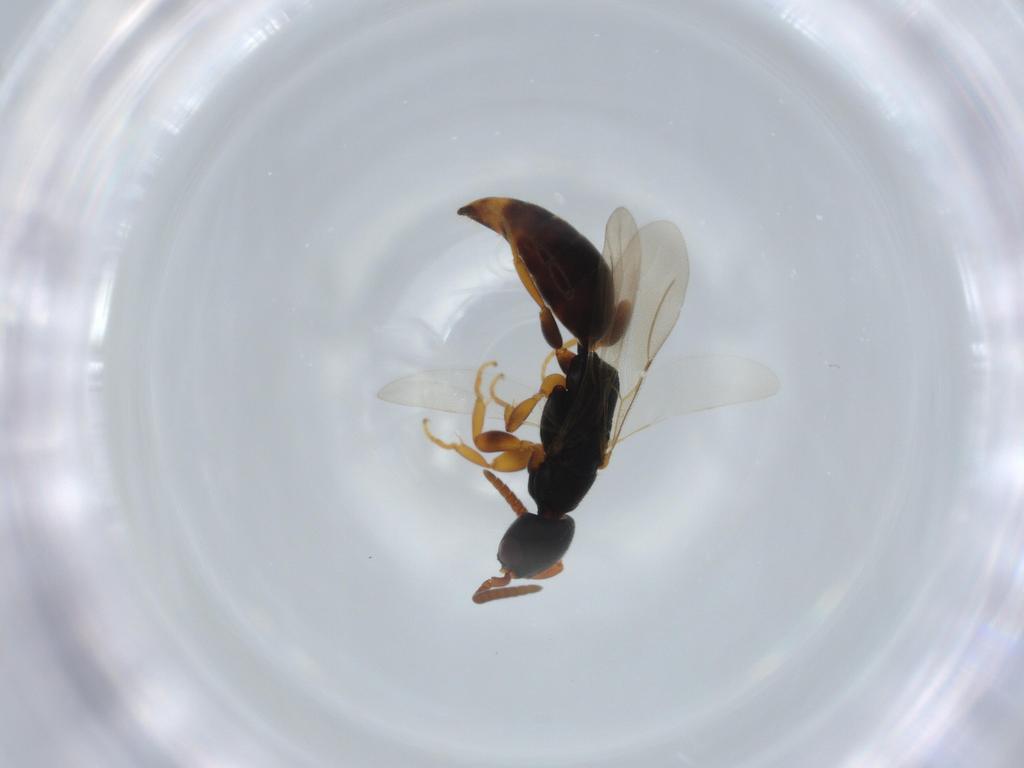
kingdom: Animalia
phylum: Arthropoda
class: Insecta
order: Hymenoptera
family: Bethylidae
